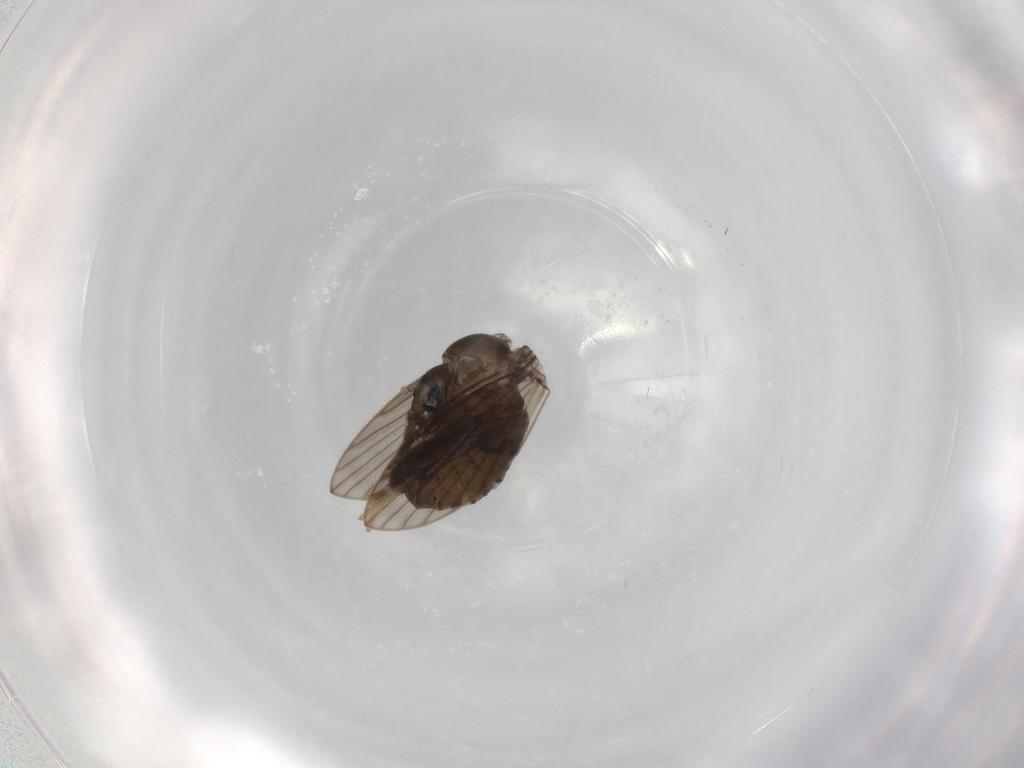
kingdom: Animalia
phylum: Arthropoda
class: Insecta
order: Diptera
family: Psychodidae
